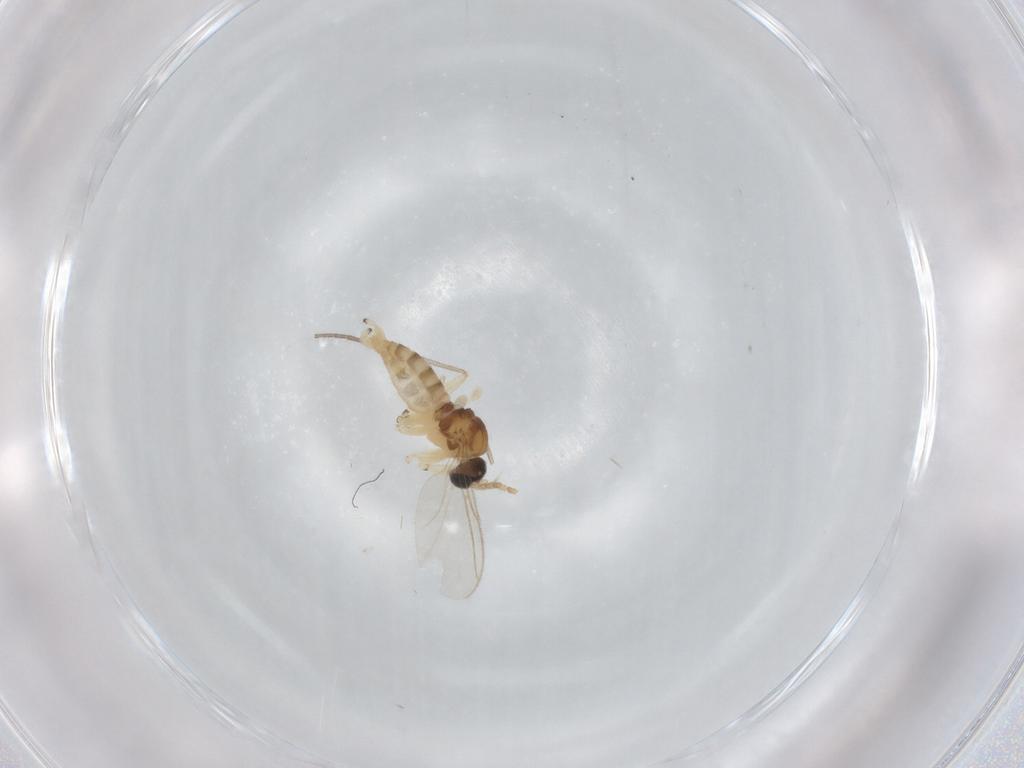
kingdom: Animalia
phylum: Arthropoda
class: Insecta
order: Diptera
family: Sciaridae
